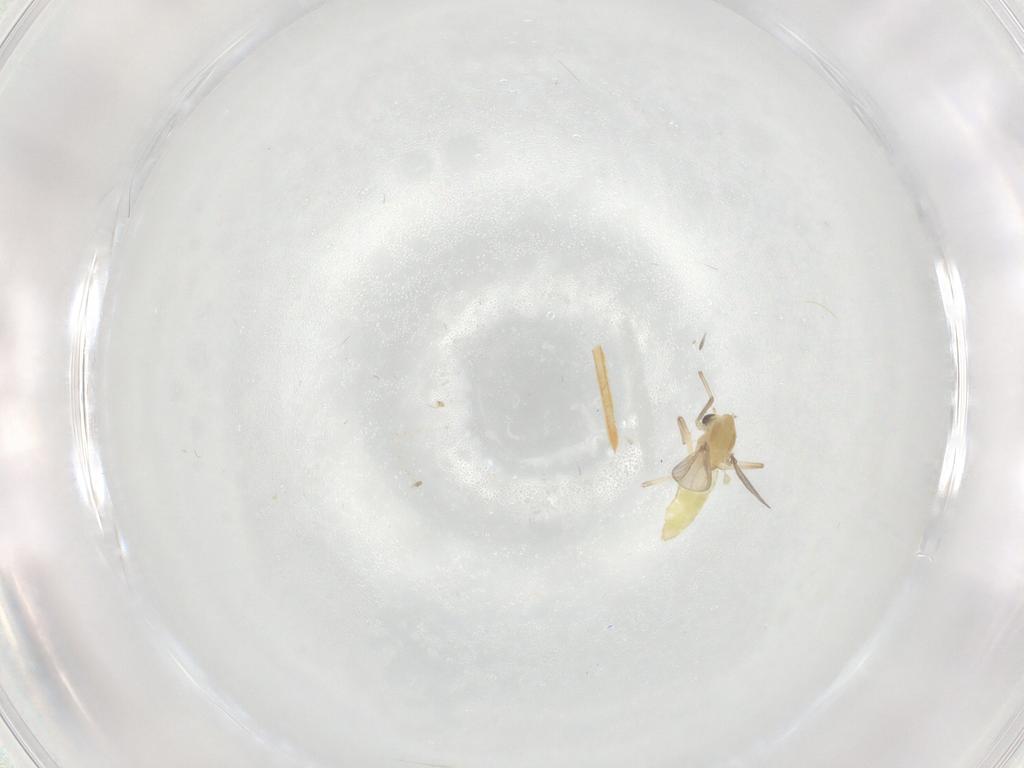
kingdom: Animalia
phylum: Arthropoda
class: Insecta
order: Diptera
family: Chironomidae
